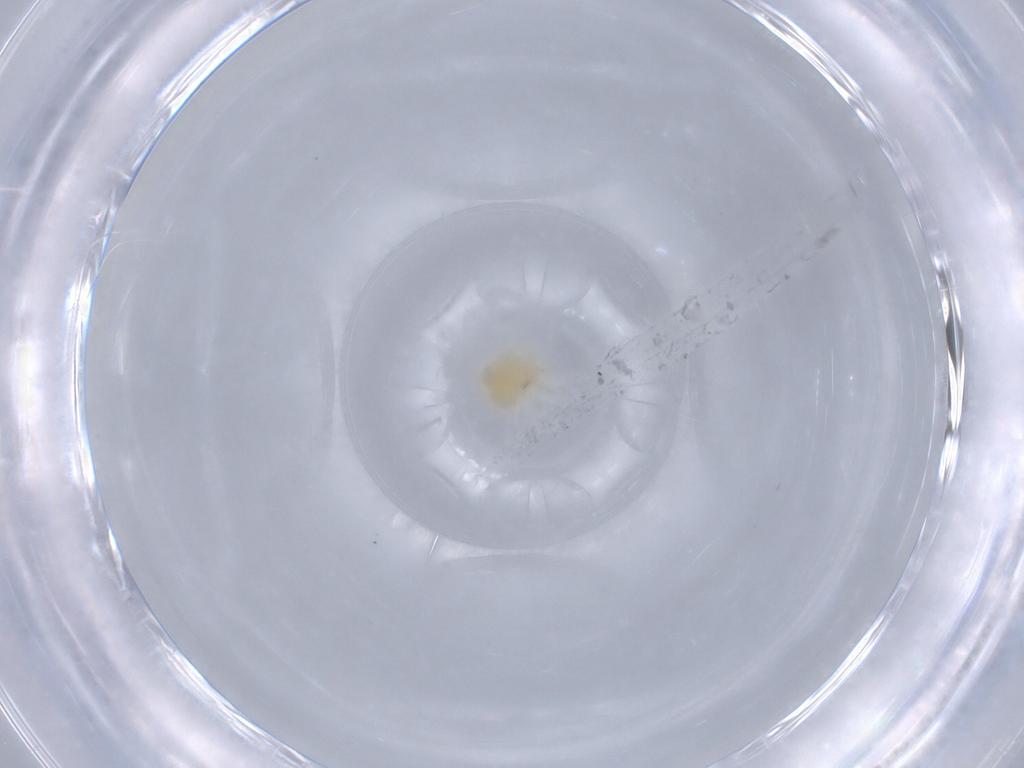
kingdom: Animalia
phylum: Arthropoda
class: Arachnida
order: Trombidiformes
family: Anystidae
